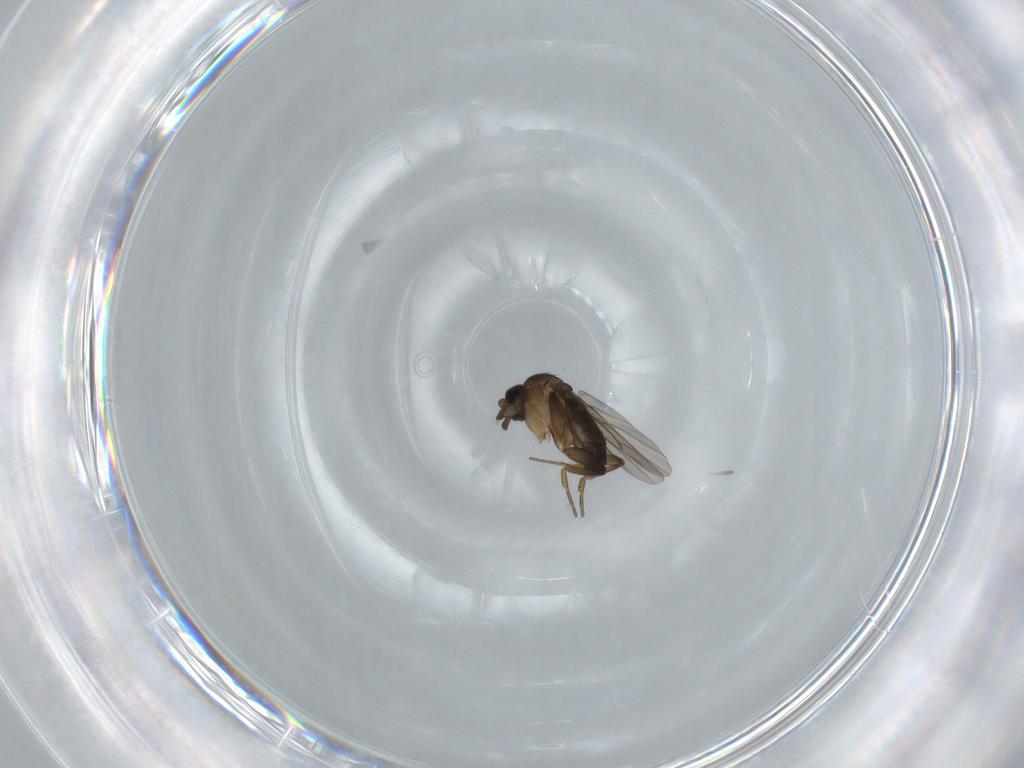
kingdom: Animalia
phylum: Arthropoda
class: Insecta
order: Diptera
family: Phoridae
